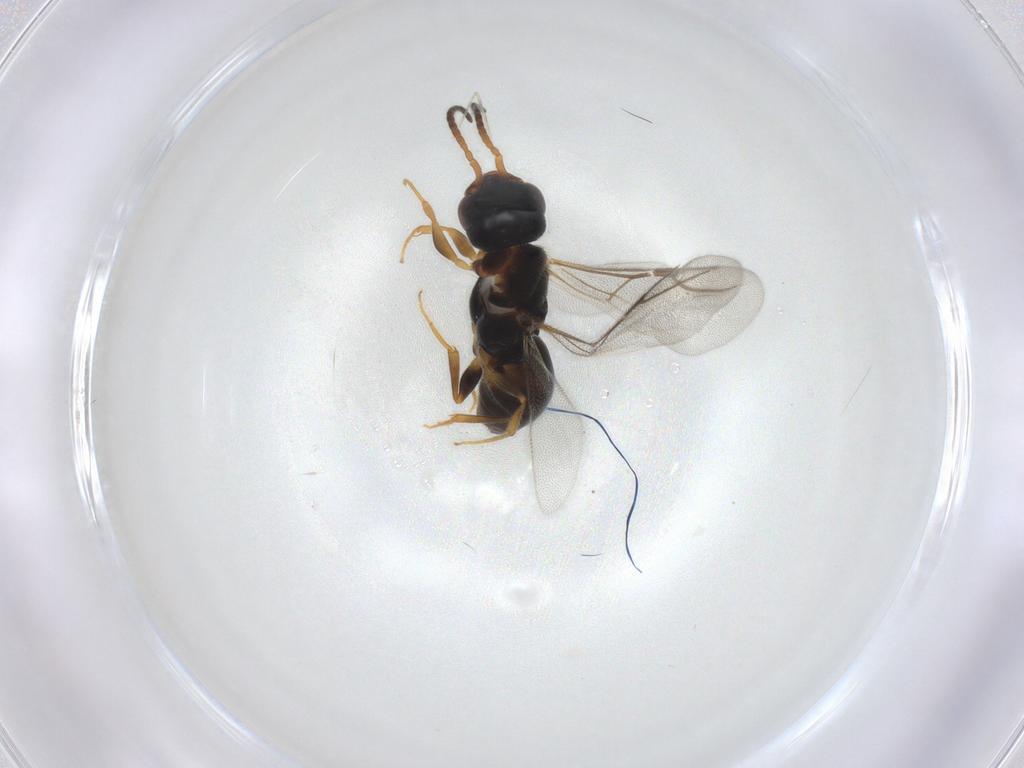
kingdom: Animalia
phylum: Arthropoda
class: Insecta
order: Hymenoptera
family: Bethylidae
